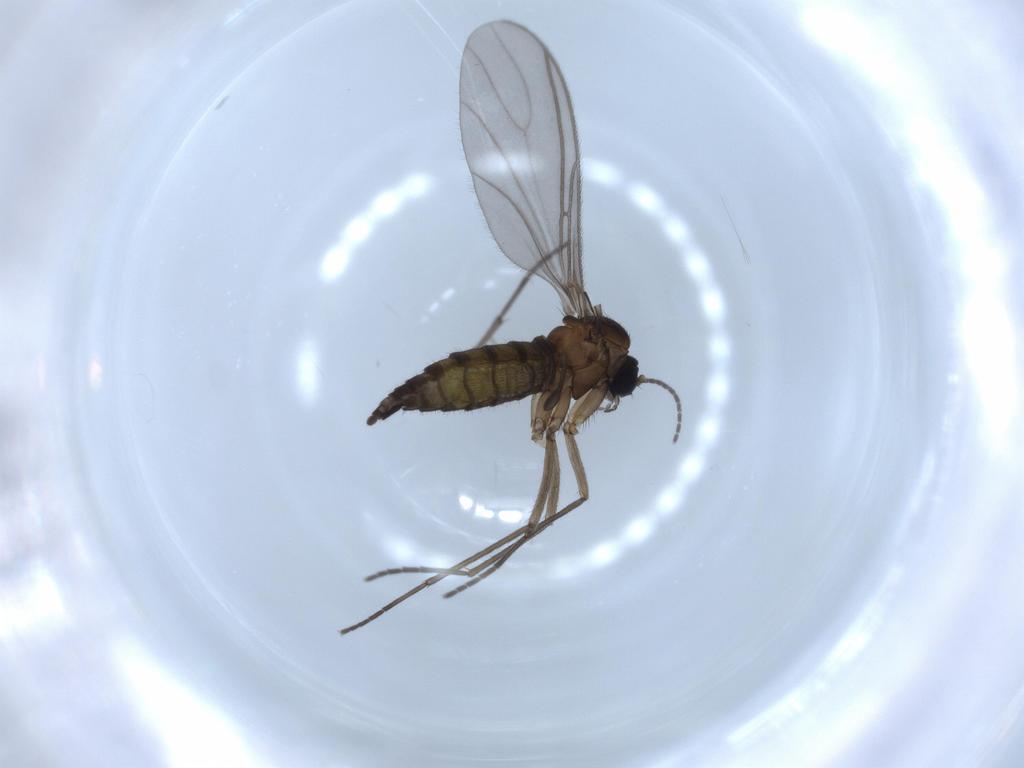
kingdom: Animalia
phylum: Arthropoda
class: Insecta
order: Diptera
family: Sciaridae
